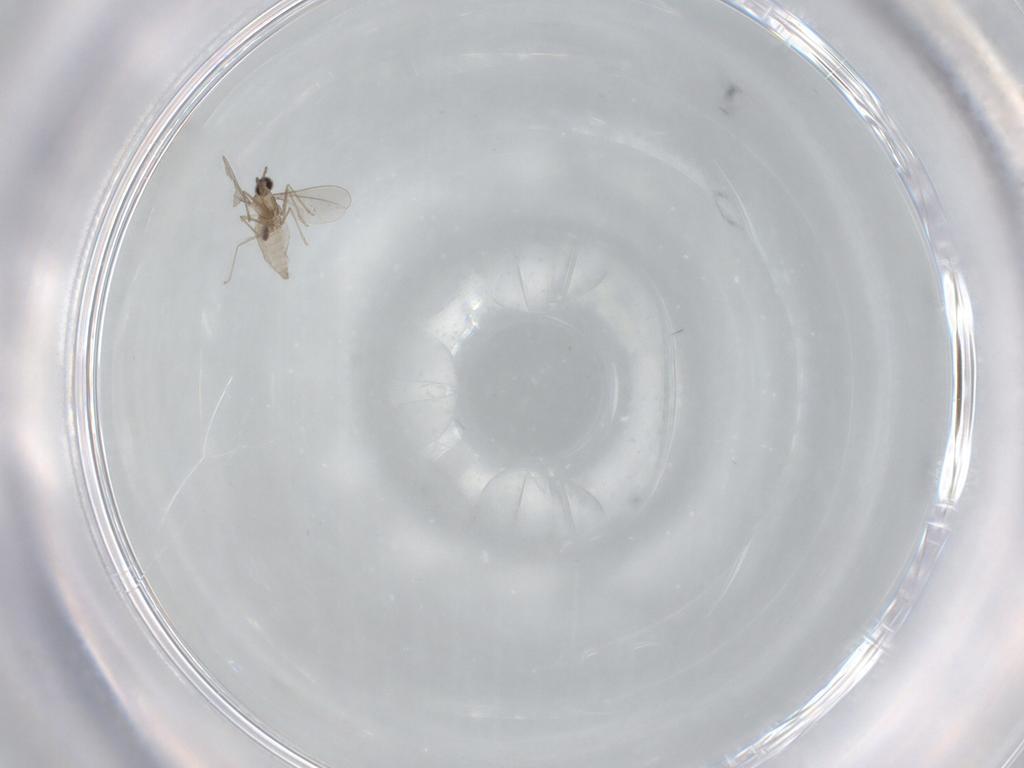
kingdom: Animalia
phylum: Arthropoda
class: Insecta
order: Diptera
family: Cecidomyiidae
